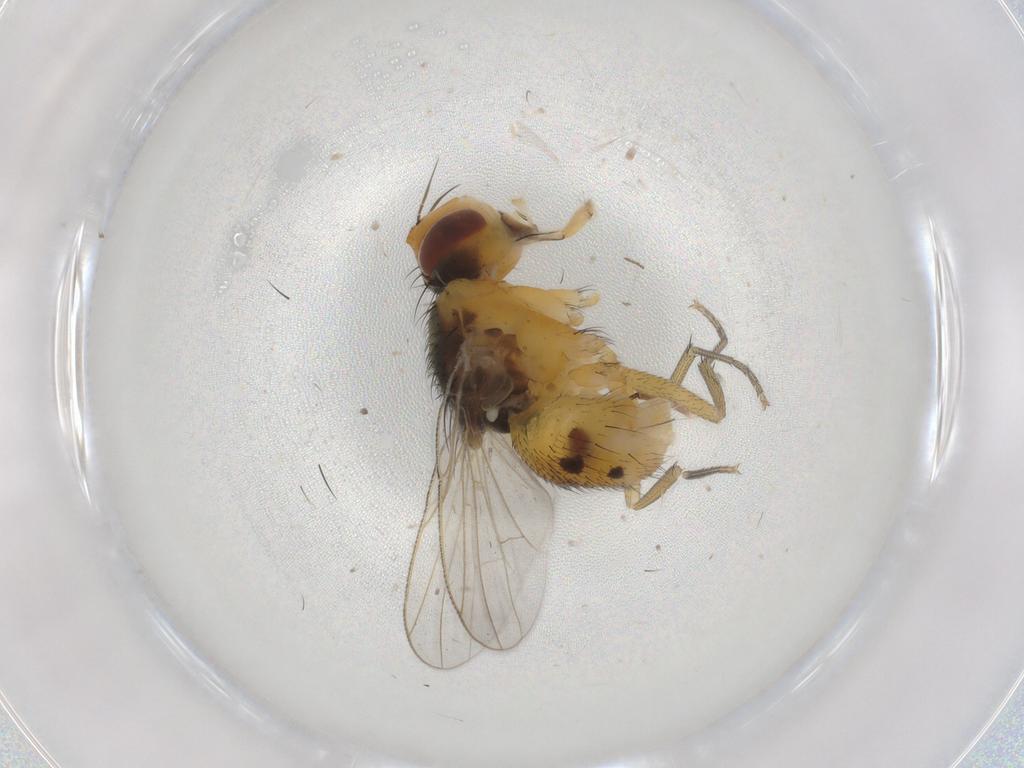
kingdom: Animalia
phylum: Arthropoda
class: Insecta
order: Diptera
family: Muscidae
